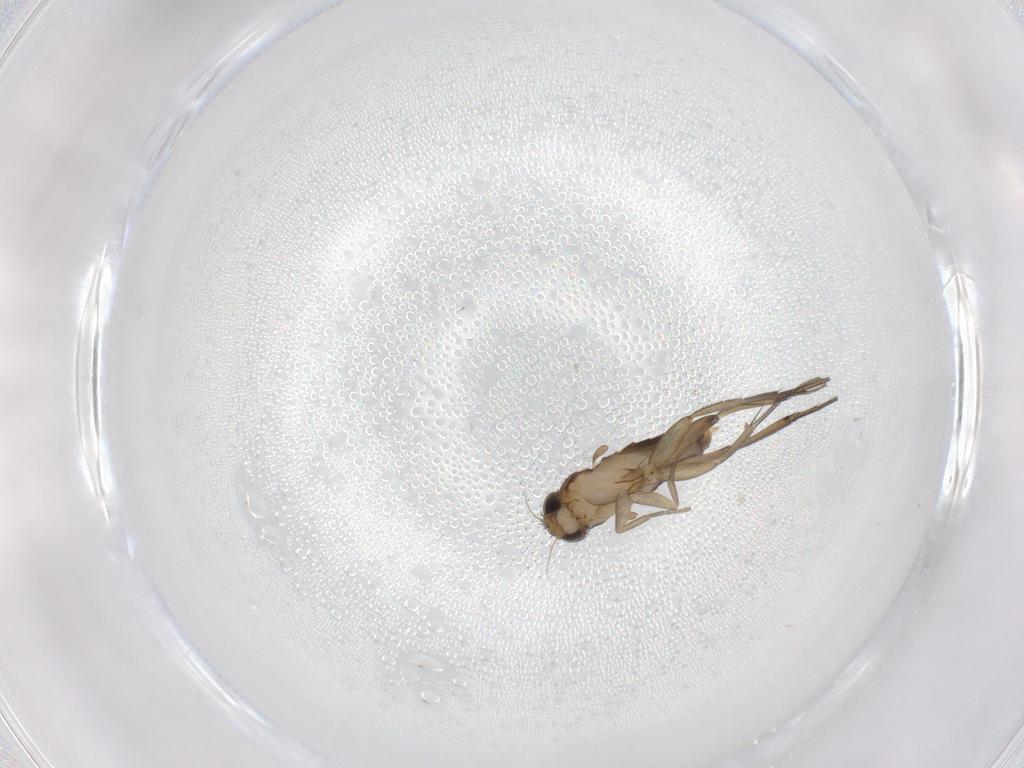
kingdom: Animalia
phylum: Arthropoda
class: Insecta
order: Diptera
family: Phoridae
